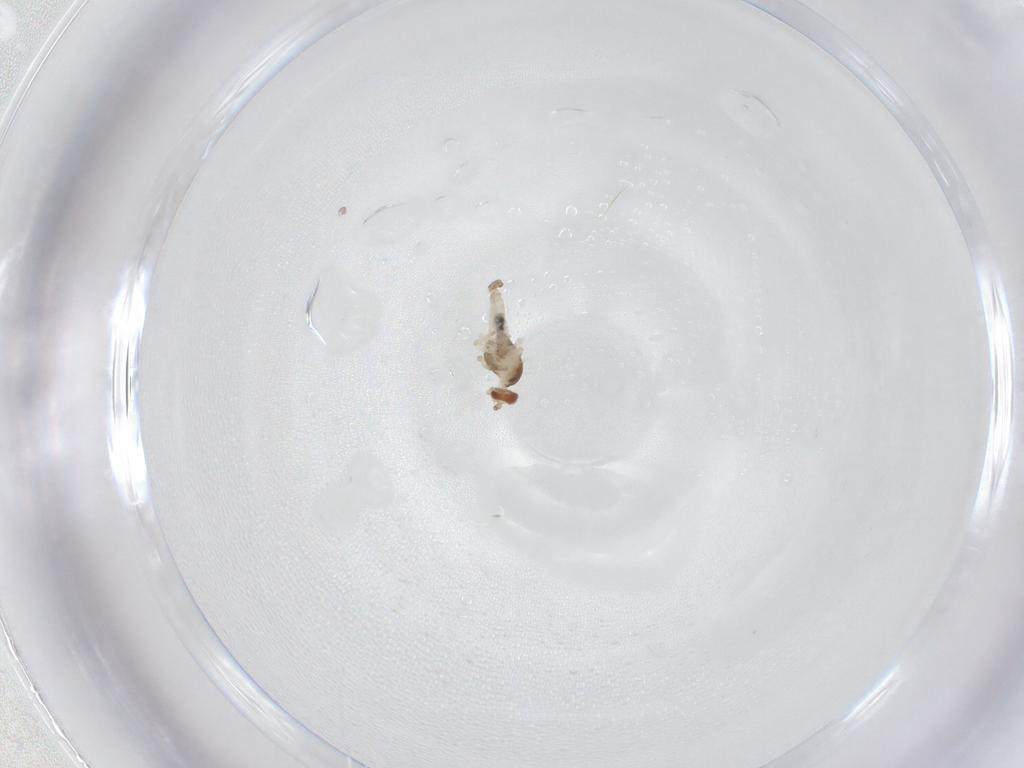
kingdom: Animalia
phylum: Arthropoda
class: Insecta
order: Diptera
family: Cecidomyiidae
